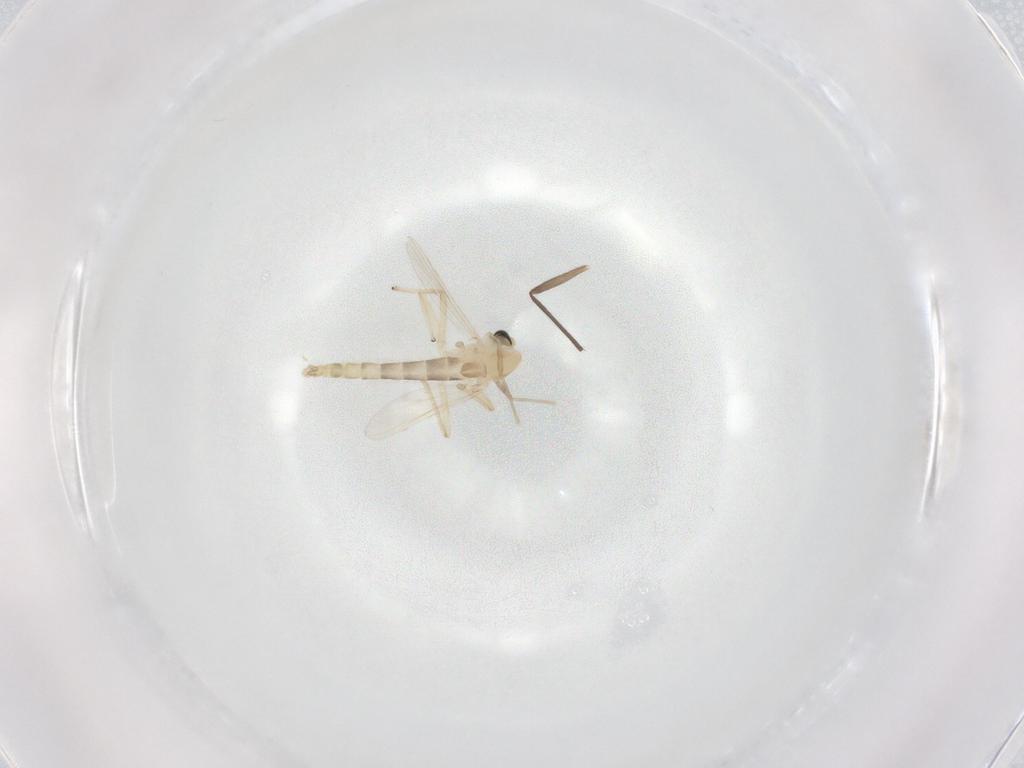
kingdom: Animalia
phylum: Arthropoda
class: Insecta
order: Diptera
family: Chironomidae
